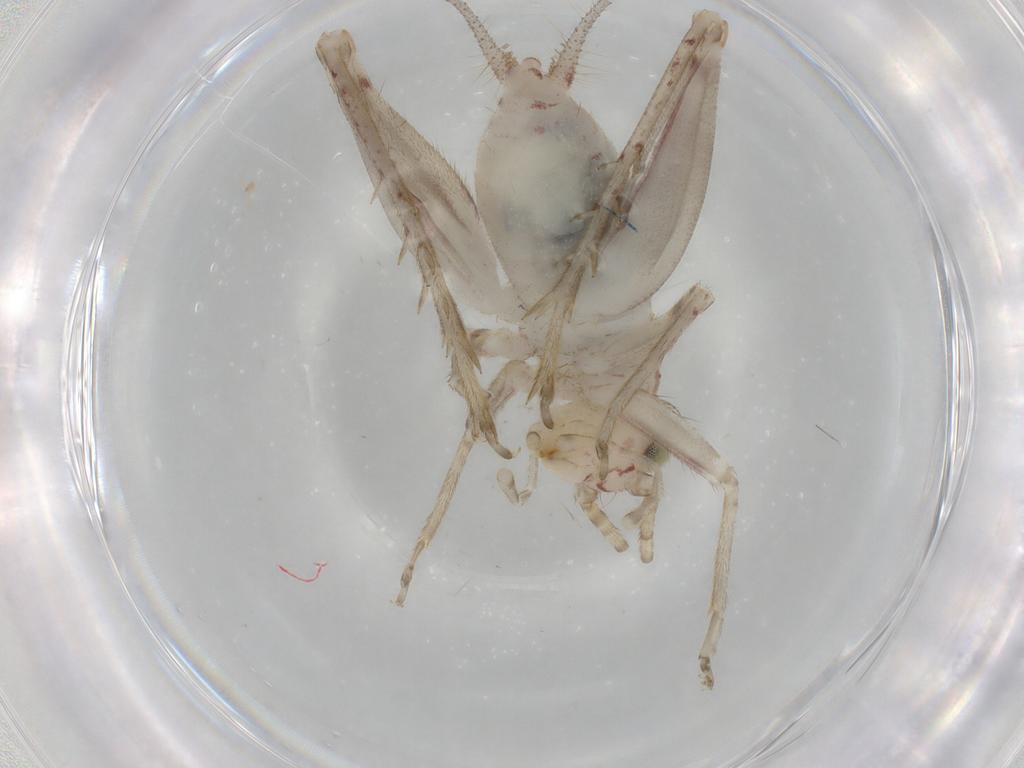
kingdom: Animalia
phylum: Arthropoda
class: Insecta
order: Orthoptera
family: Trigonidiidae
